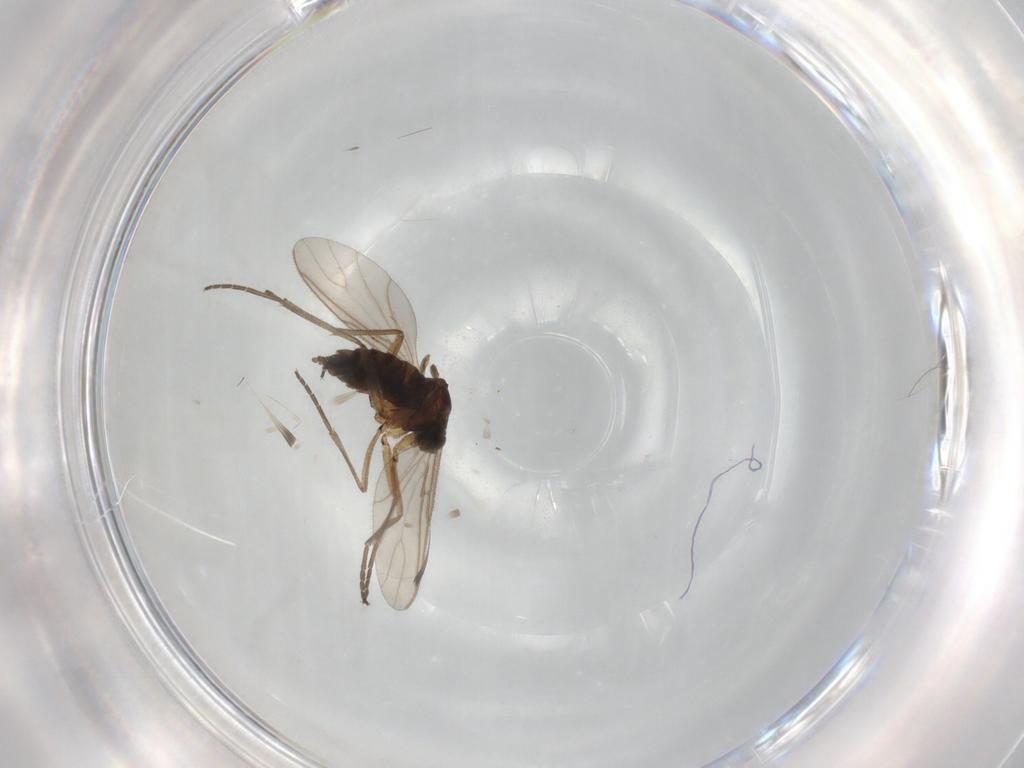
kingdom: Animalia
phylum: Arthropoda
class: Insecta
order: Diptera
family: Sciaridae
